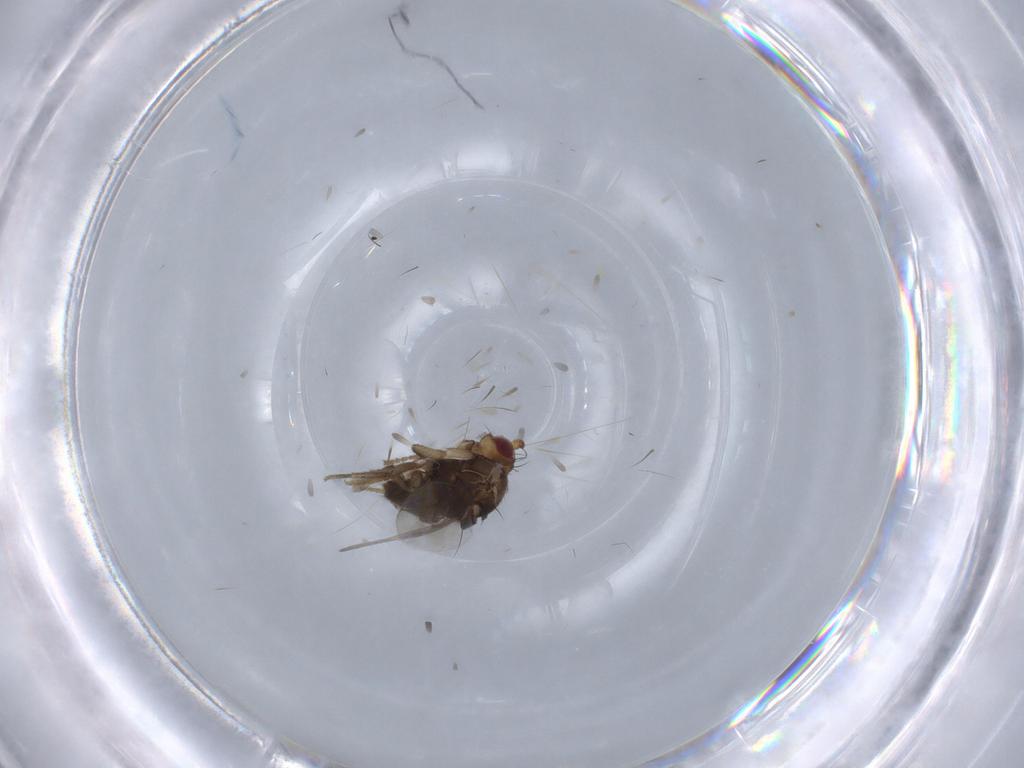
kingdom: Animalia
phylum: Arthropoda
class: Insecta
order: Diptera
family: Sphaeroceridae
